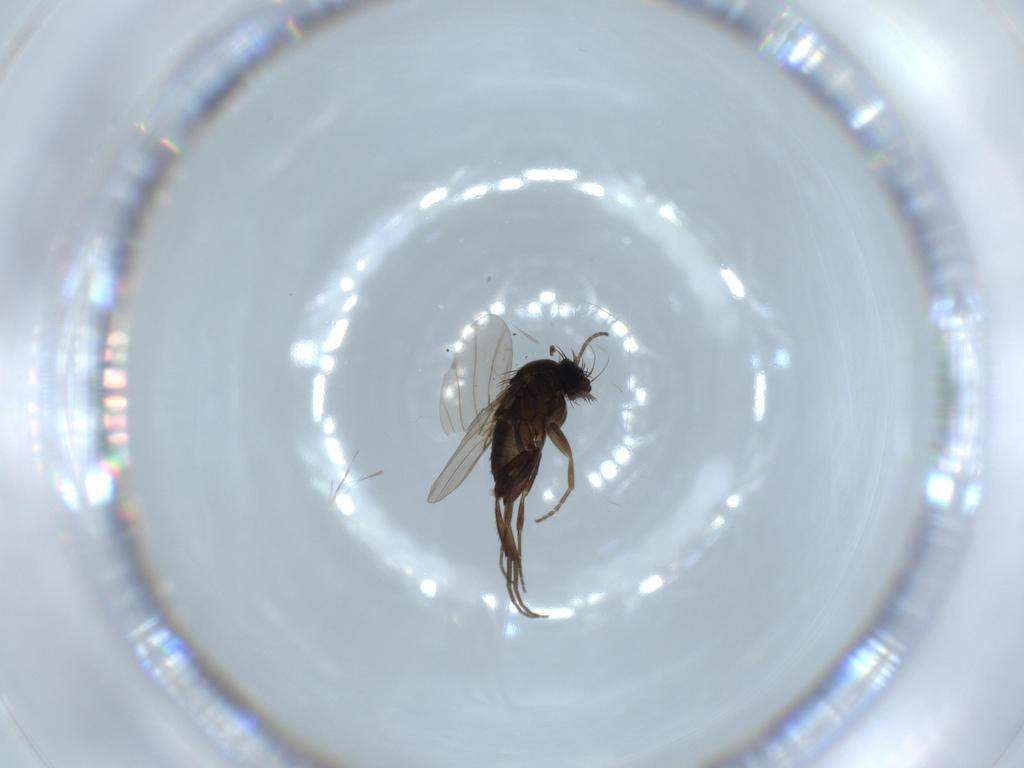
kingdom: Animalia
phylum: Arthropoda
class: Insecta
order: Diptera
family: Phoridae
